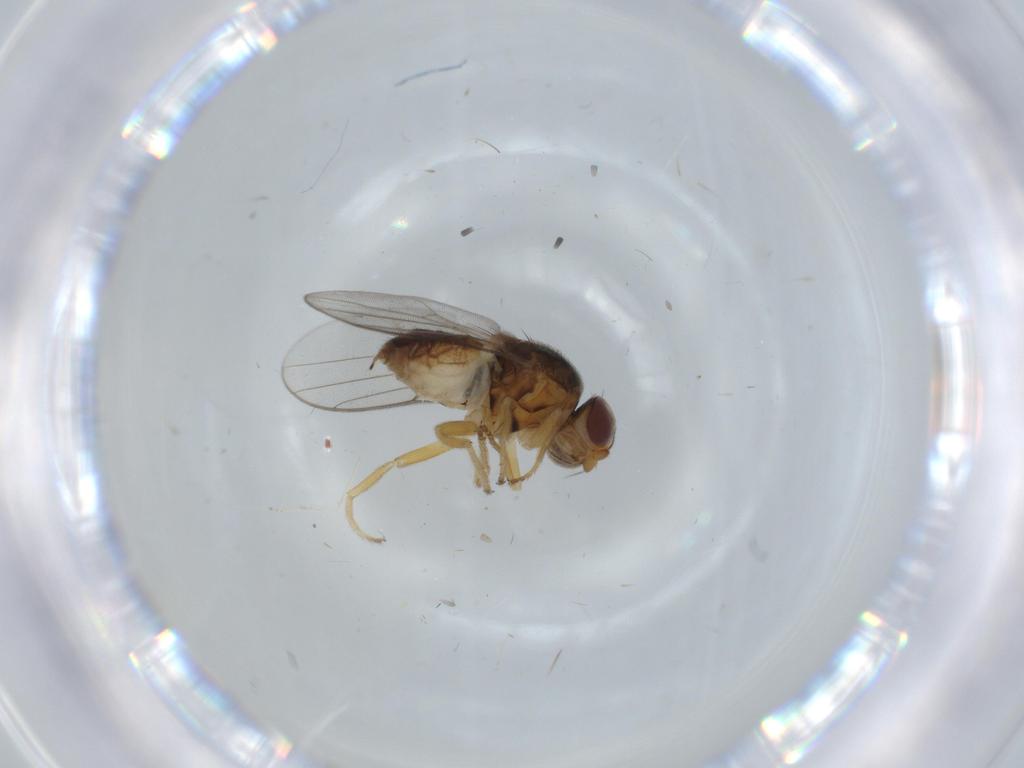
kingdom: Animalia
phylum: Arthropoda
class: Insecta
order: Diptera
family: Chloropidae
